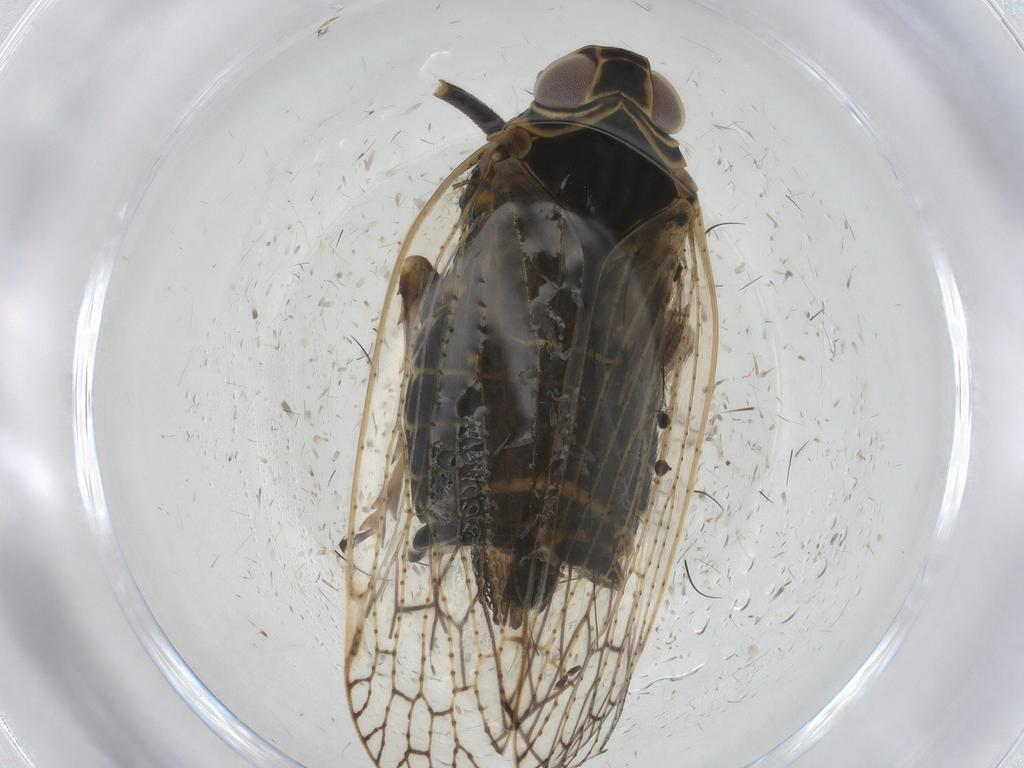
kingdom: Animalia
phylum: Arthropoda
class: Insecta
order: Hemiptera
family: Cixiidae
